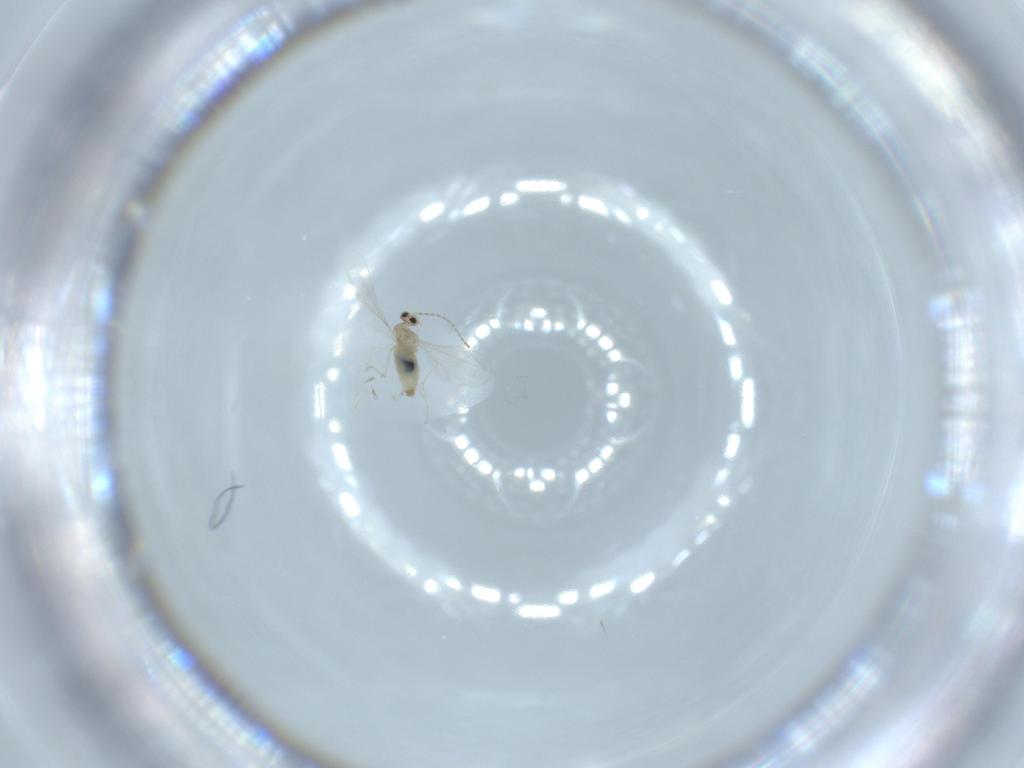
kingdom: Animalia
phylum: Arthropoda
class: Insecta
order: Diptera
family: Cecidomyiidae
